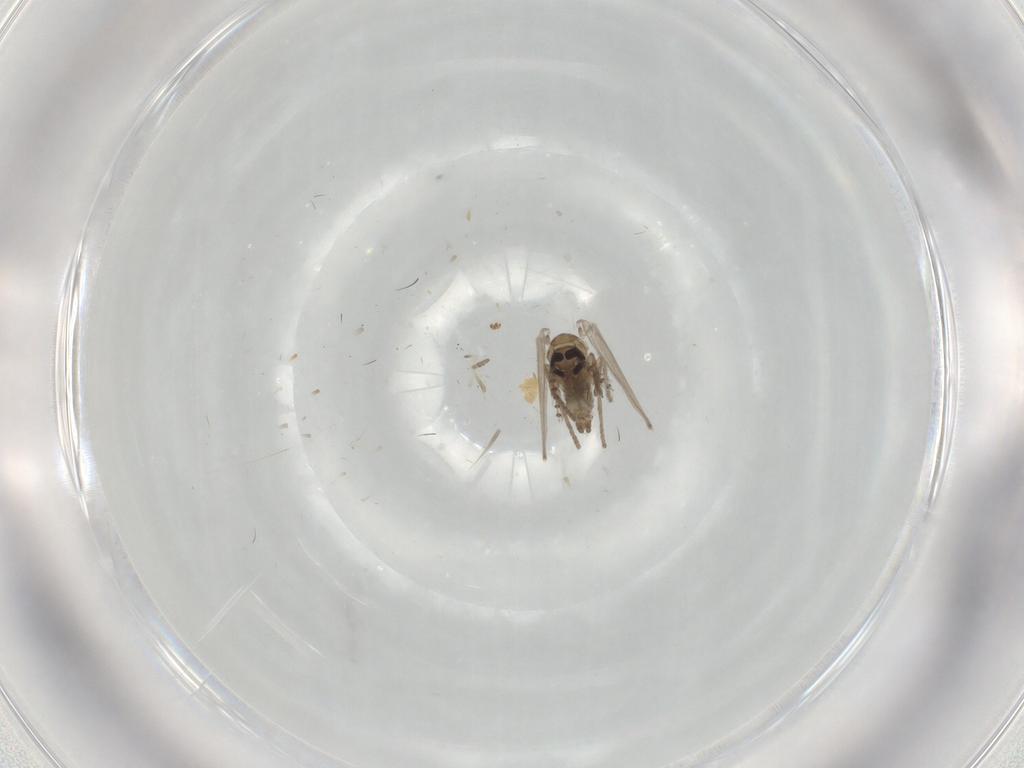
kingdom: Animalia
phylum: Arthropoda
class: Insecta
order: Diptera
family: Psychodidae
